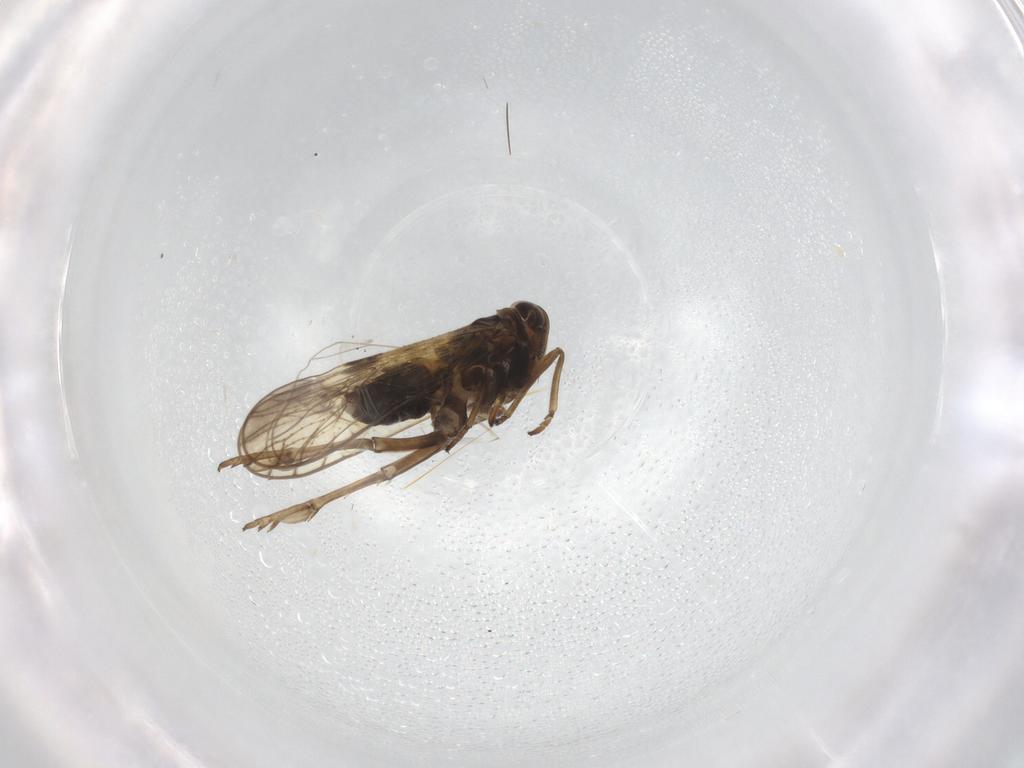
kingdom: Animalia
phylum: Arthropoda
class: Insecta
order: Hemiptera
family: Delphacidae
